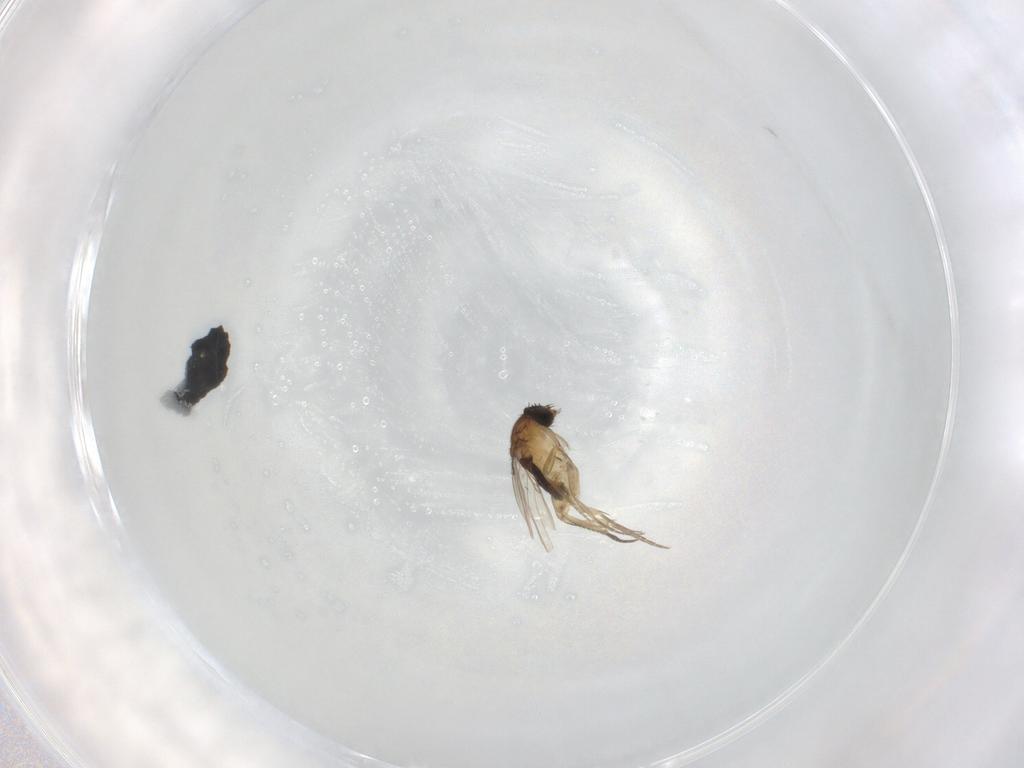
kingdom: Animalia
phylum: Arthropoda
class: Insecta
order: Diptera
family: Phoridae
